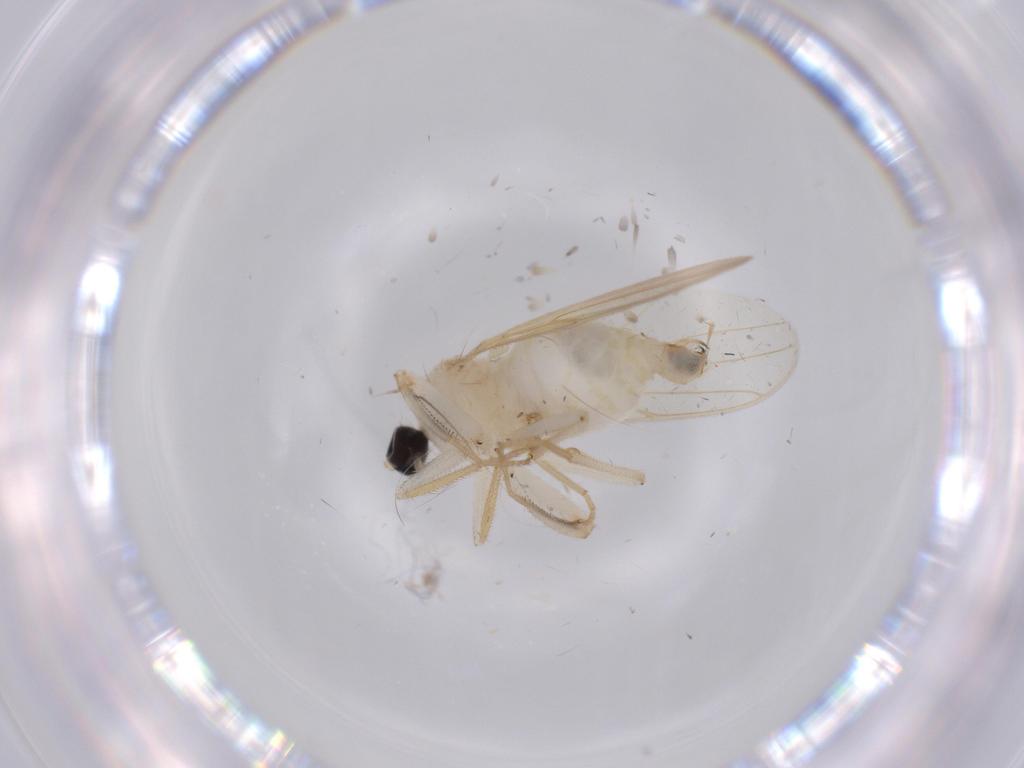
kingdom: Animalia
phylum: Arthropoda
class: Insecta
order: Diptera
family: Hybotidae
